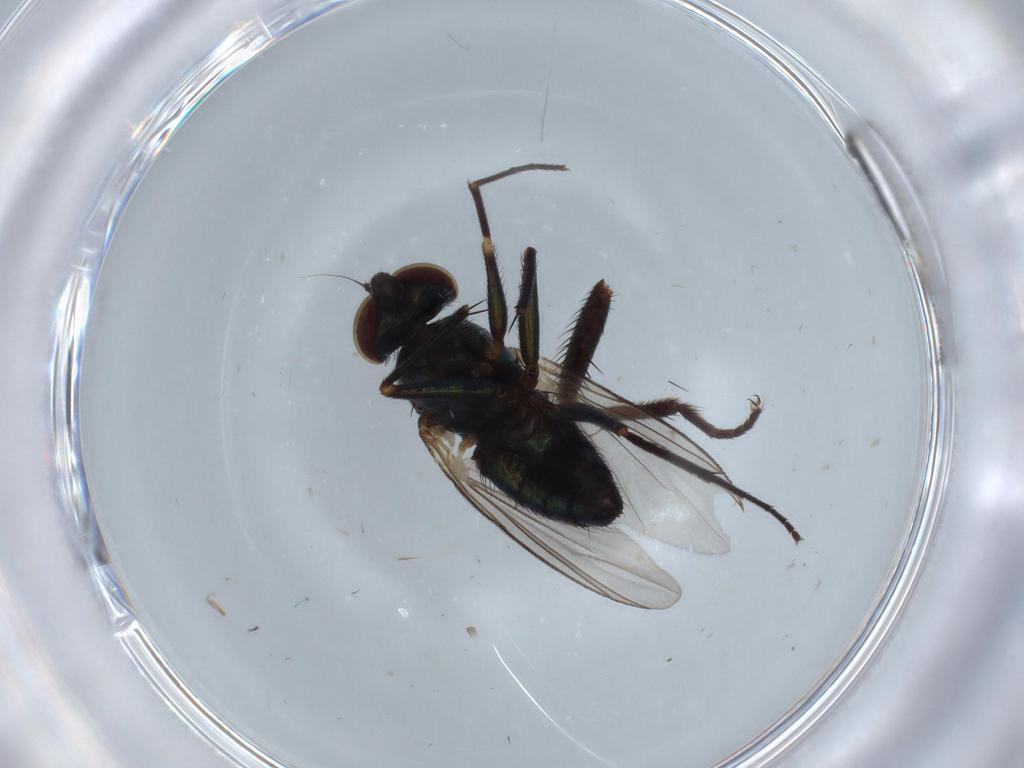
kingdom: Animalia
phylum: Arthropoda
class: Insecta
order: Diptera
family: Dolichopodidae
